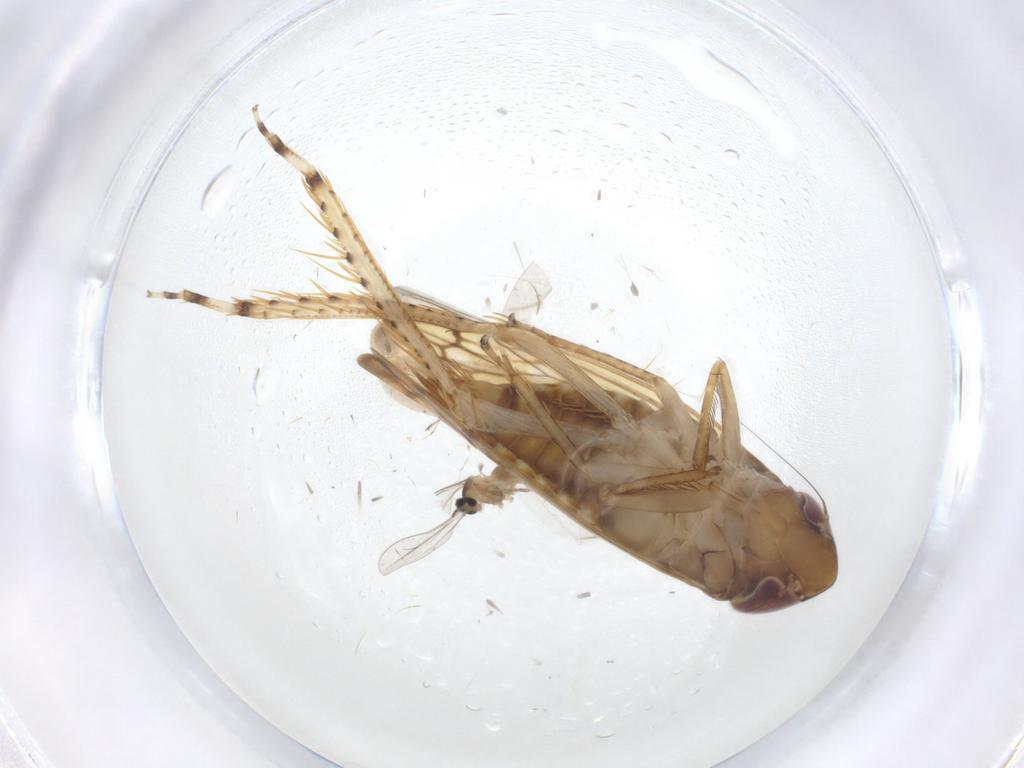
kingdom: Animalia
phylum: Arthropoda
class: Insecta
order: Hemiptera
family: Cicadellidae
